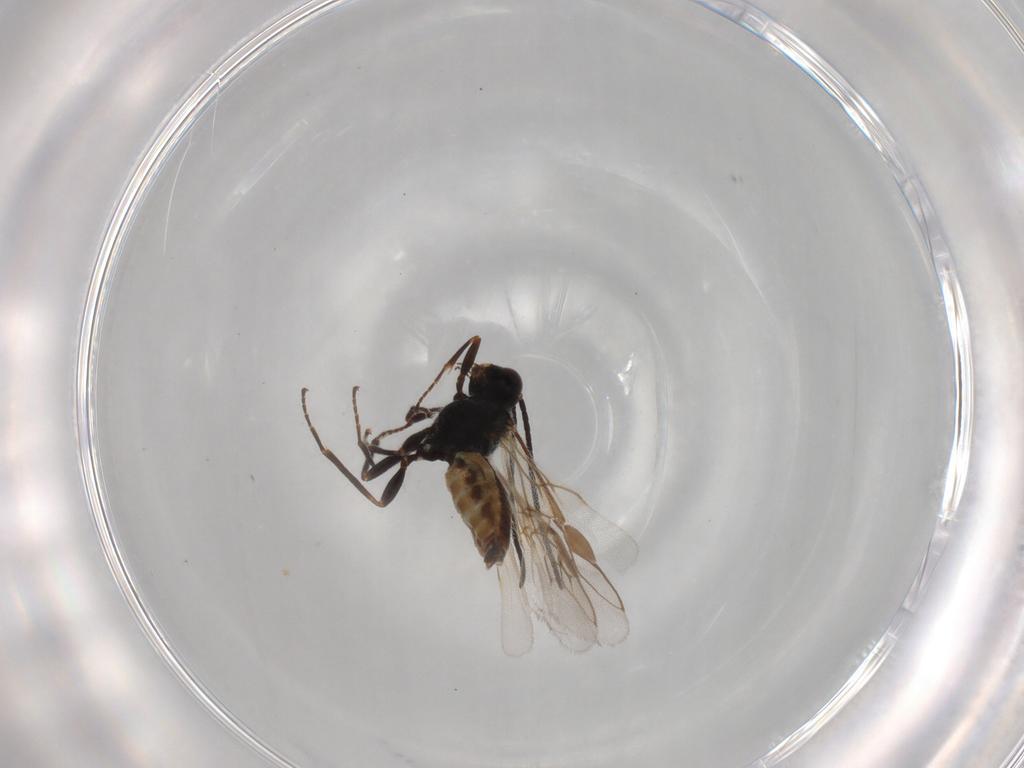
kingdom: Animalia
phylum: Arthropoda
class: Insecta
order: Hymenoptera
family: Braconidae
